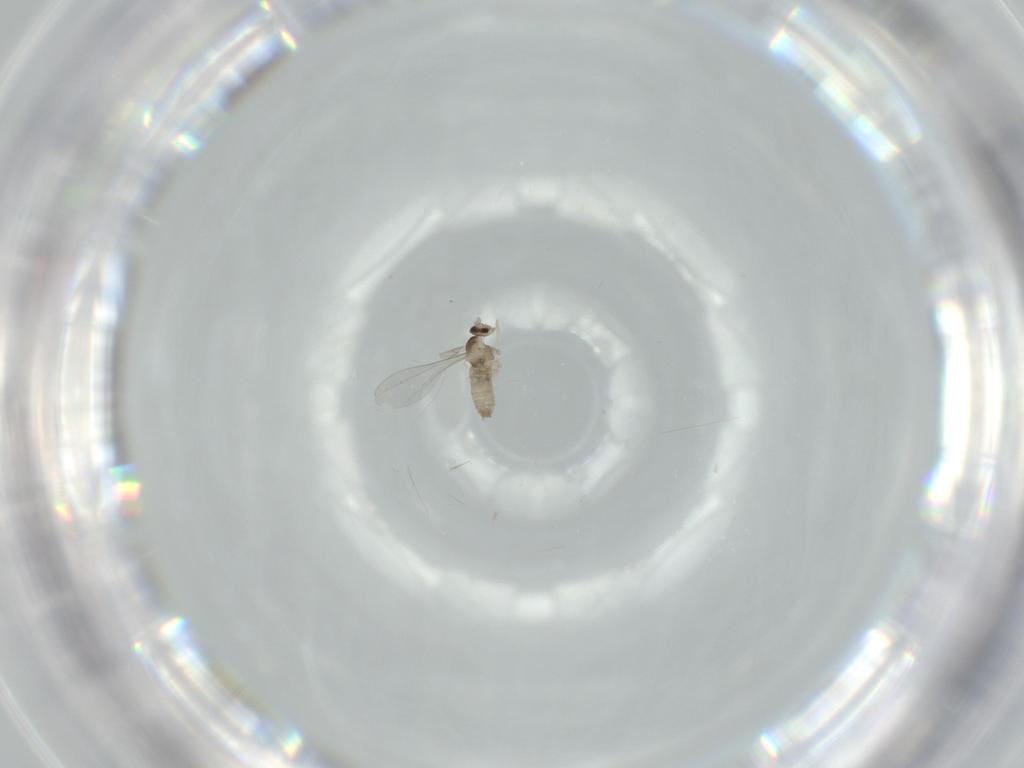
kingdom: Animalia
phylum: Arthropoda
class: Insecta
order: Diptera
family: Cecidomyiidae
